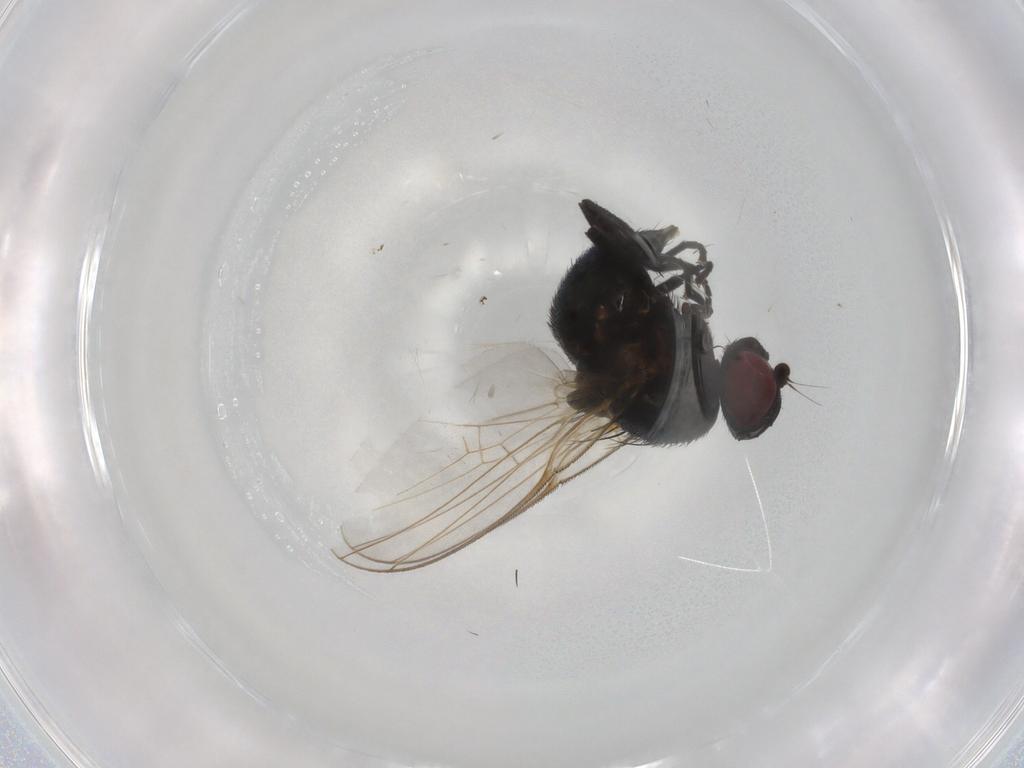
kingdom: Animalia
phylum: Arthropoda
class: Insecta
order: Diptera
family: Agromyzidae
